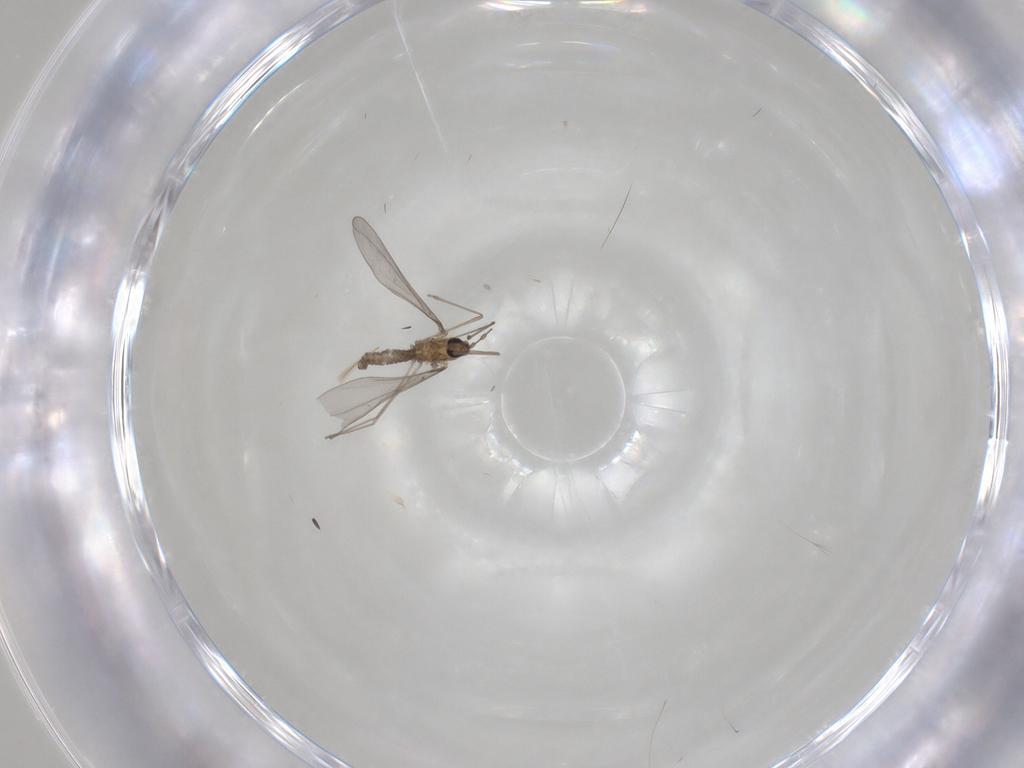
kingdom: Animalia
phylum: Arthropoda
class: Insecta
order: Diptera
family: Cecidomyiidae
